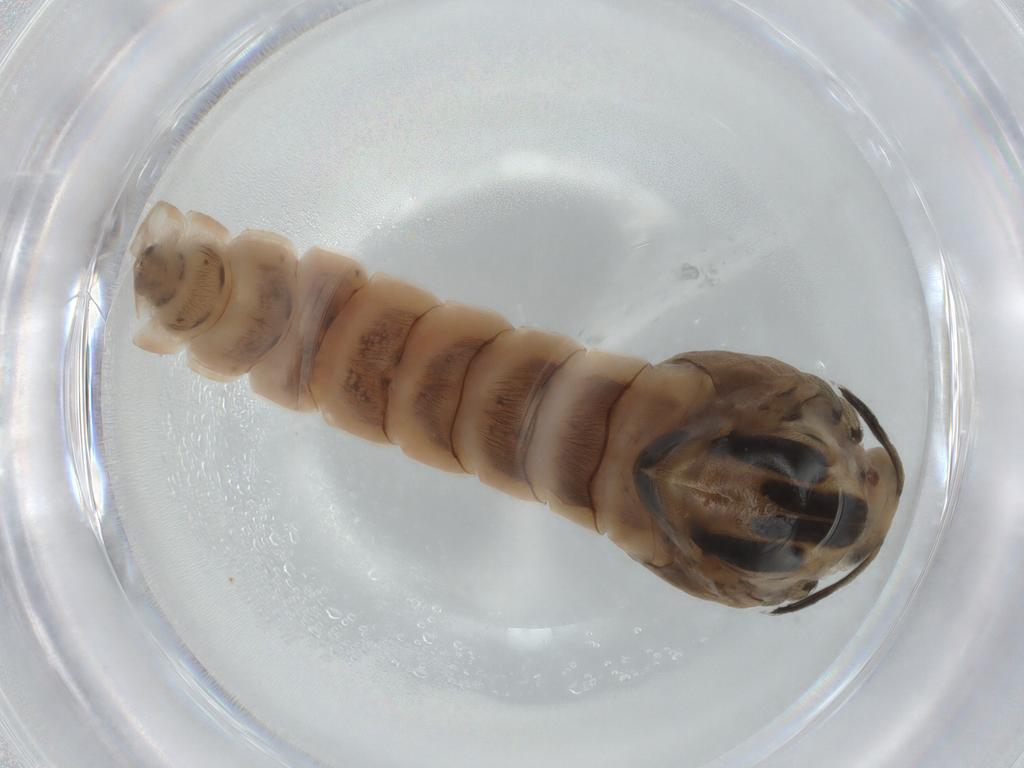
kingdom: Animalia
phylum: Arthropoda
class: Insecta
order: Diptera
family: Chironomidae
